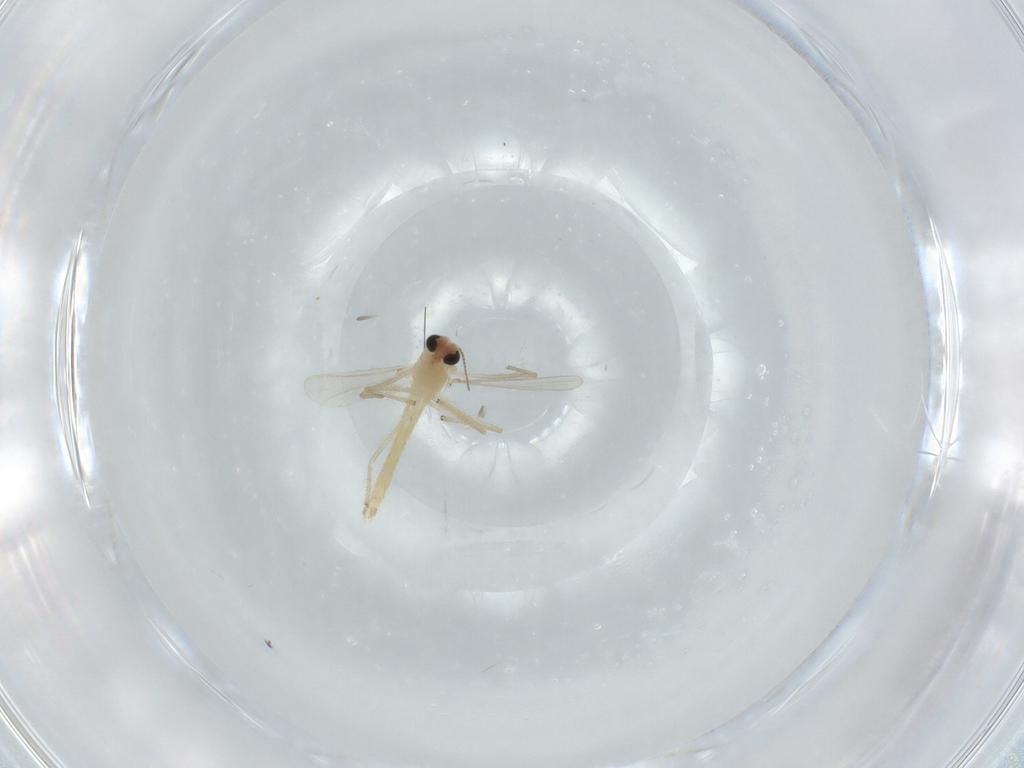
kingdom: Animalia
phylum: Arthropoda
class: Insecta
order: Diptera
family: Chironomidae
